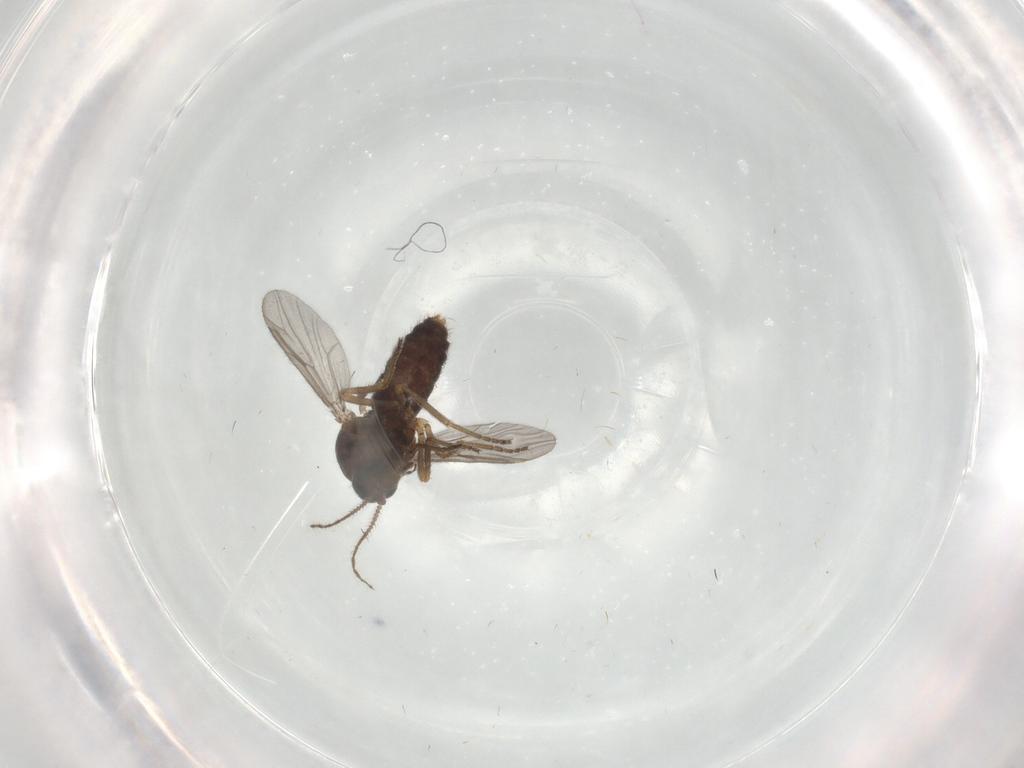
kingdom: Animalia
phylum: Arthropoda
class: Insecta
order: Diptera
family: Ceratopogonidae
